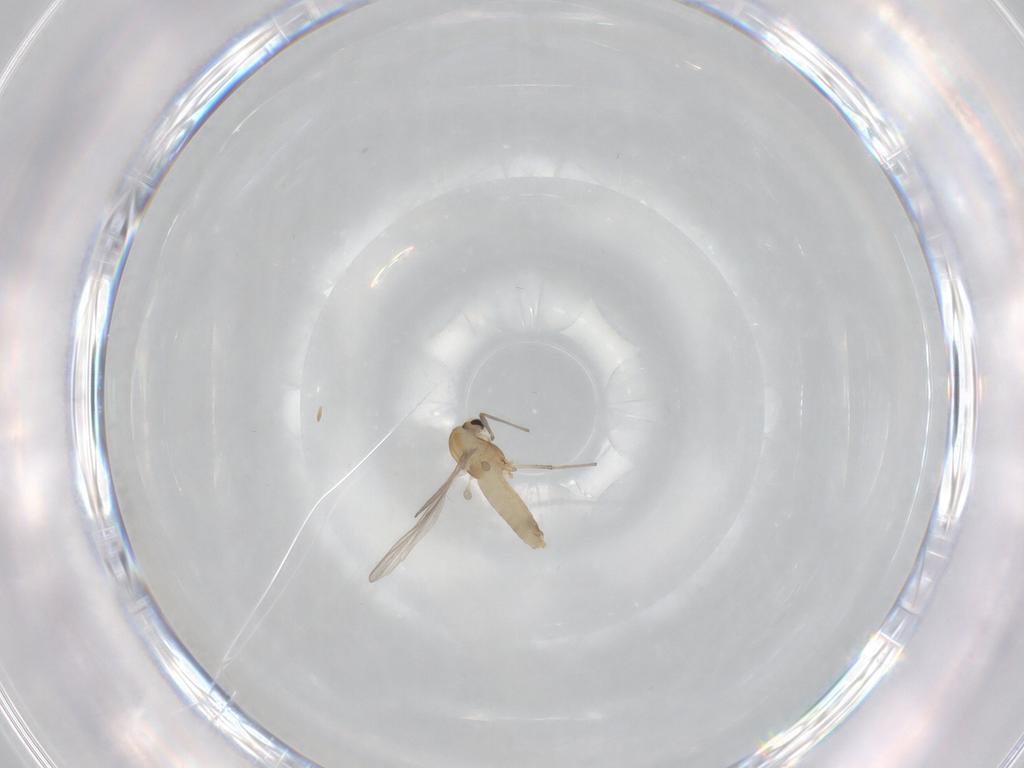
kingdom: Animalia
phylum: Arthropoda
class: Insecta
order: Diptera
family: Chironomidae
